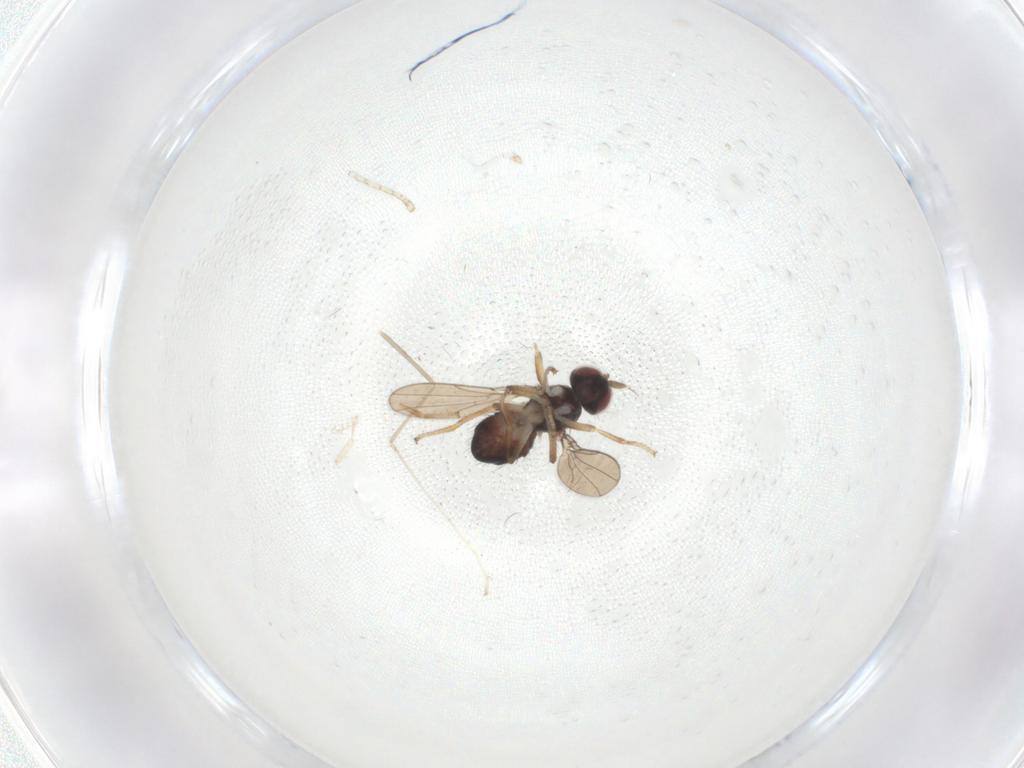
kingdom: Animalia
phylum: Arthropoda
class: Insecta
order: Diptera
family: Ephydridae
